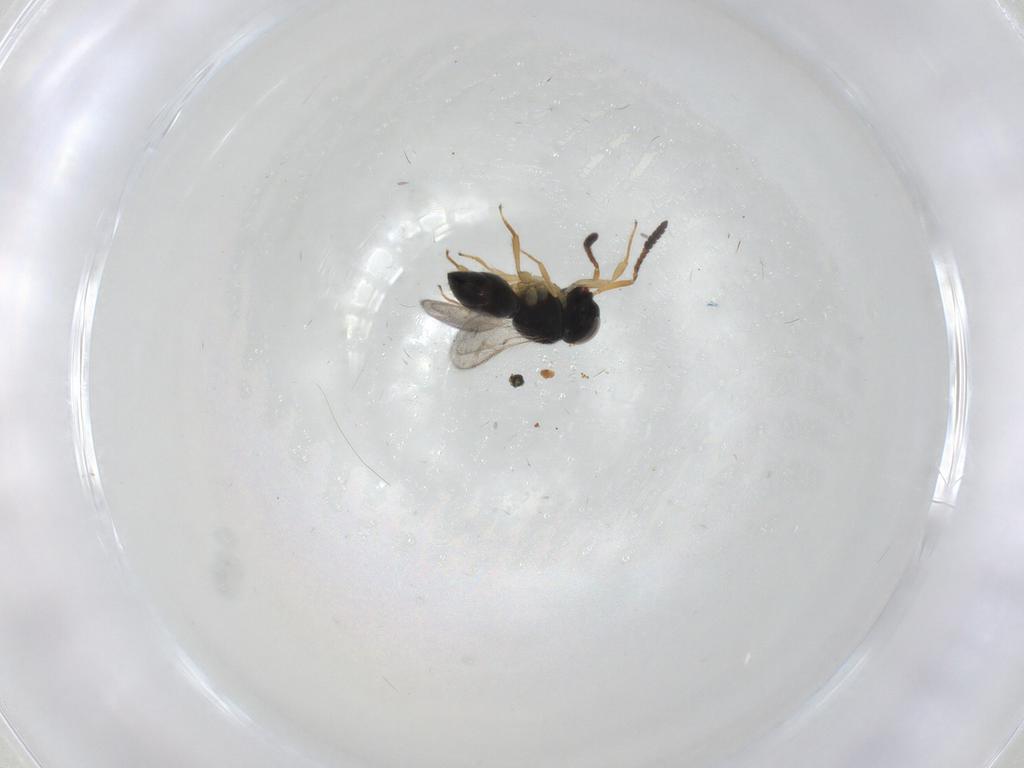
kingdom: Animalia
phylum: Arthropoda
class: Insecta
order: Hymenoptera
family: Scelionidae
